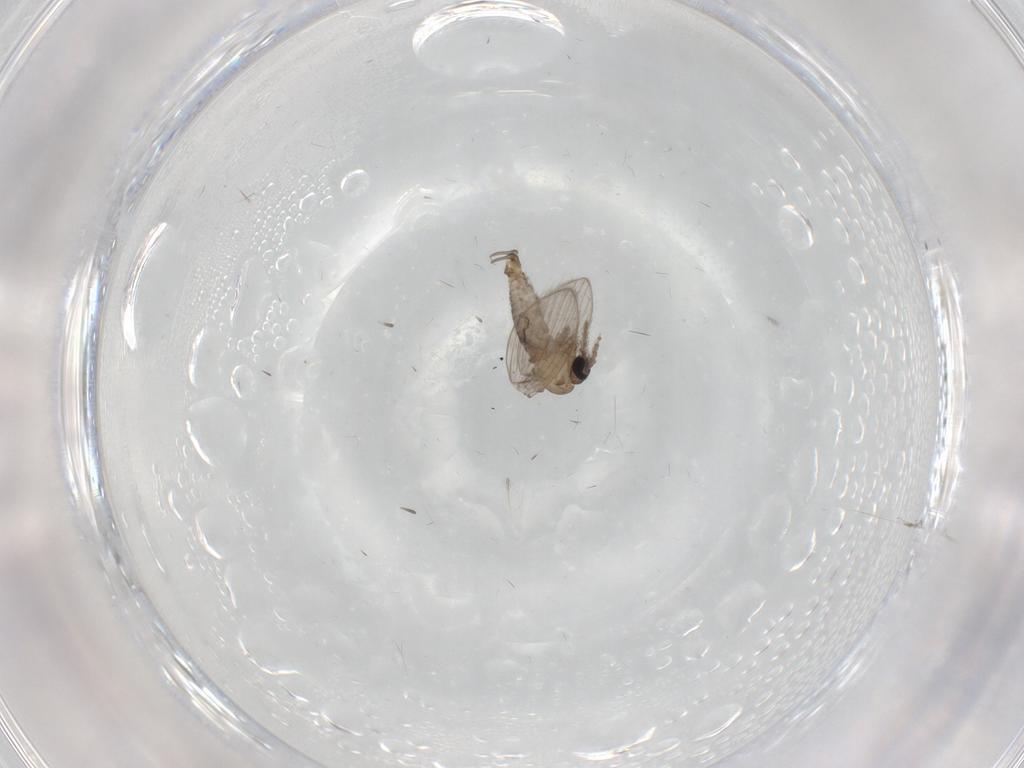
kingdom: Animalia
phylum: Arthropoda
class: Insecta
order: Diptera
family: Psychodidae
